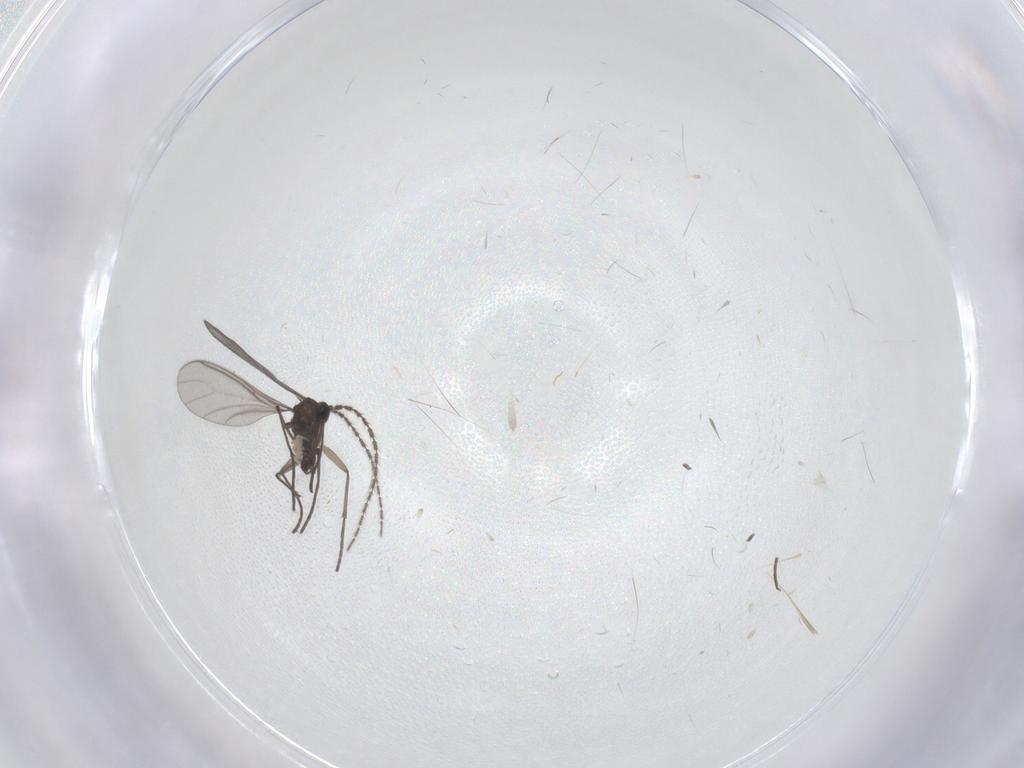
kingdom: Animalia
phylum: Arthropoda
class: Insecta
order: Diptera
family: Sciaridae
